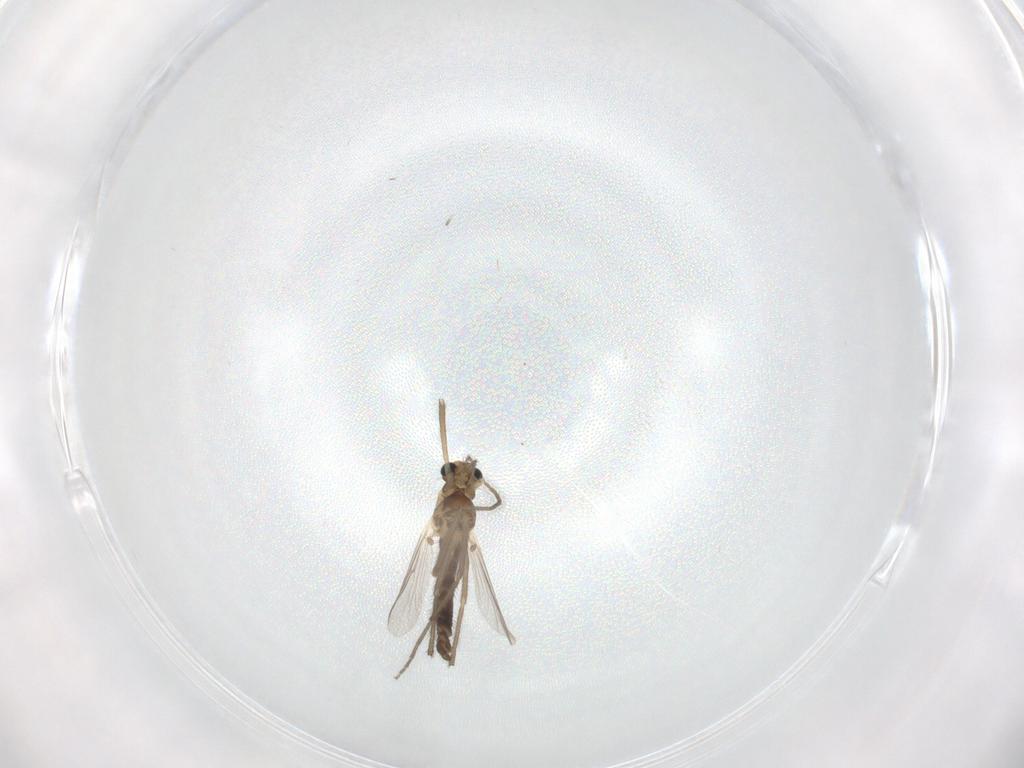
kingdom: Animalia
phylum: Arthropoda
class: Insecta
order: Diptera
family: Chironomidae
